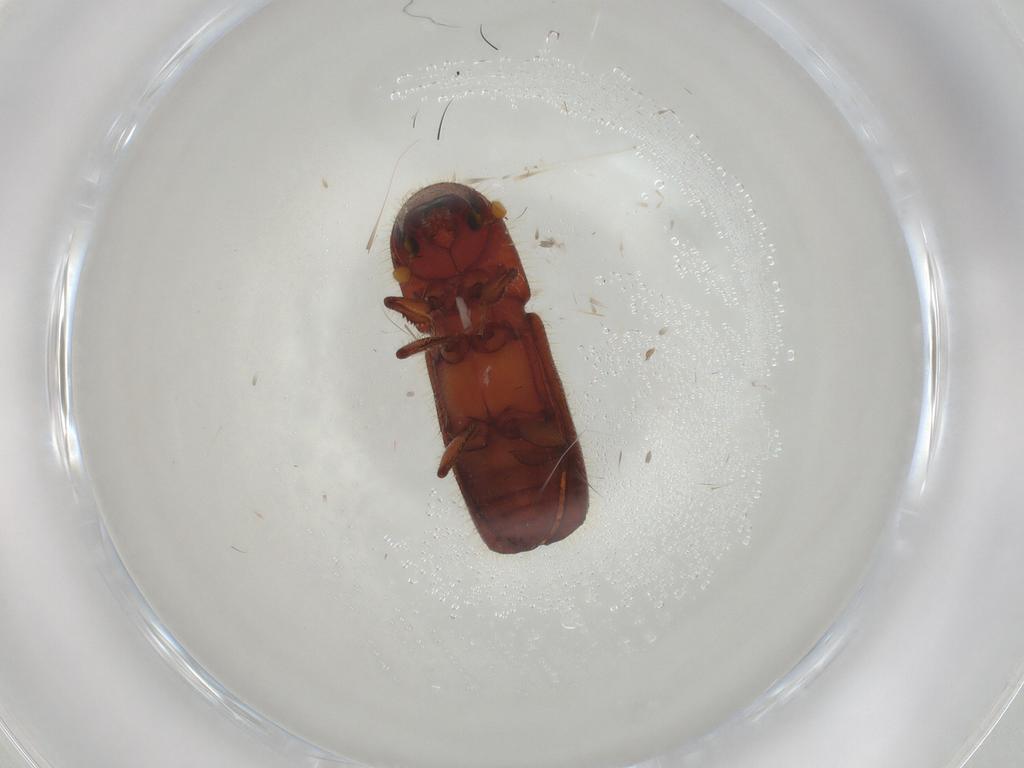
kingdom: Animalia
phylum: Arthropoda
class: Insecta
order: Coleoptera
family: Curculionidae
